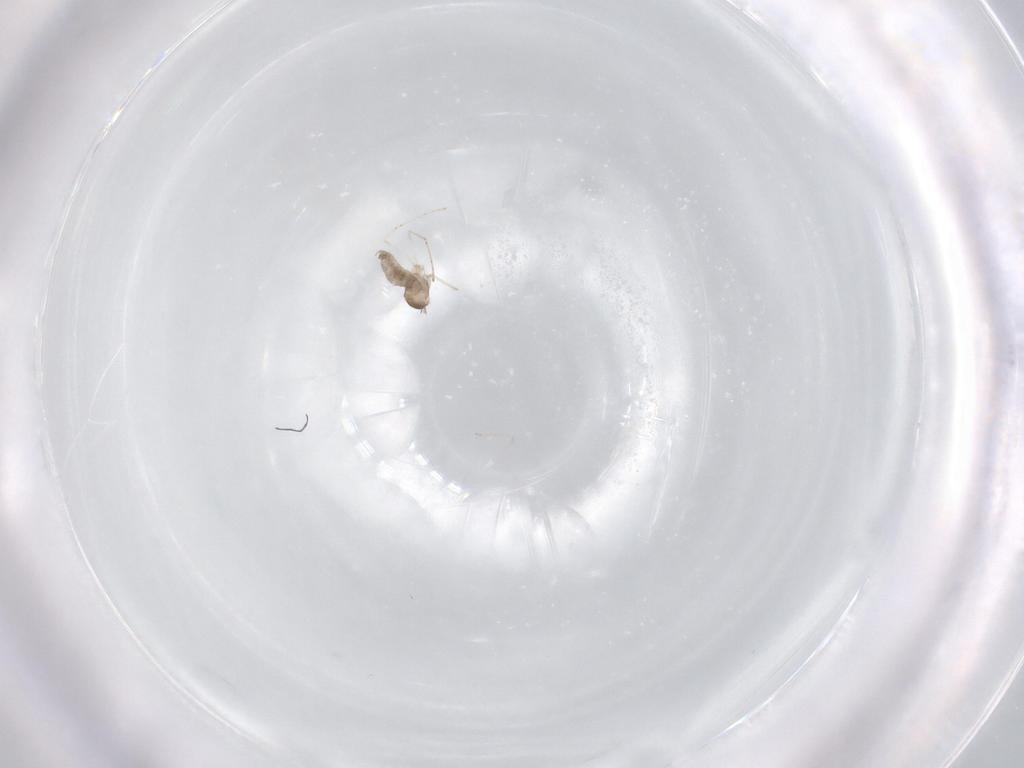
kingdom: Animalia
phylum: Arthropoda
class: Insecta
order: Diptera
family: Cecidomyiidae
